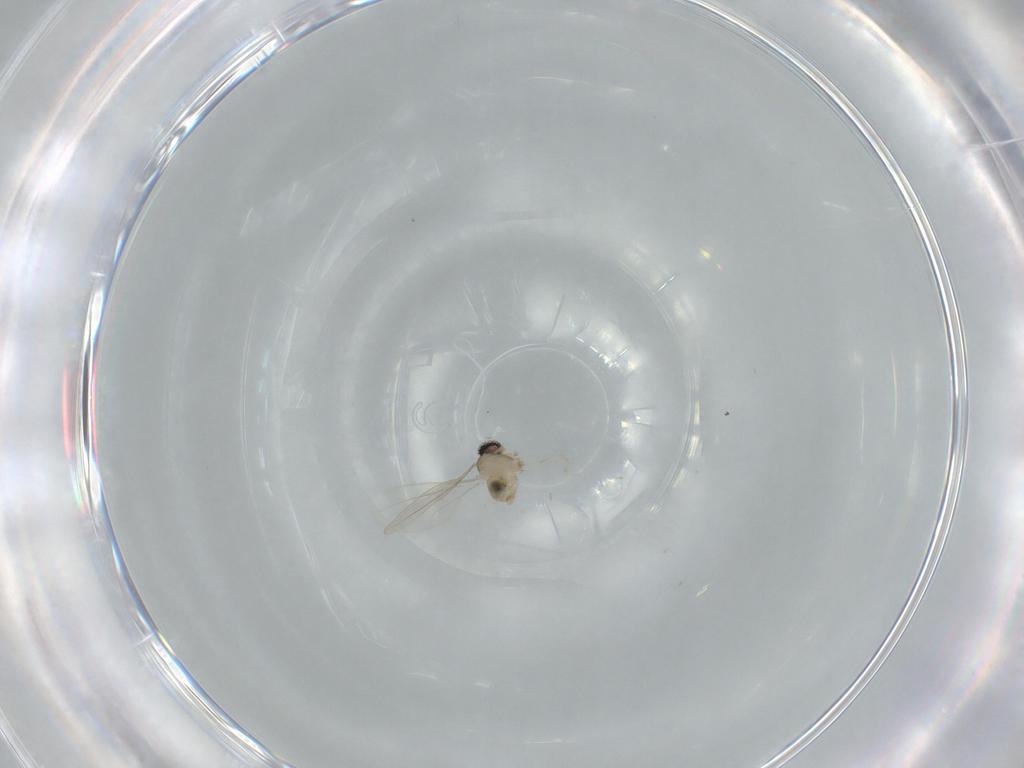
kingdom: Animalia
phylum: Arthropoda
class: Insecta
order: Diptera
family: Cecidomyiidae
